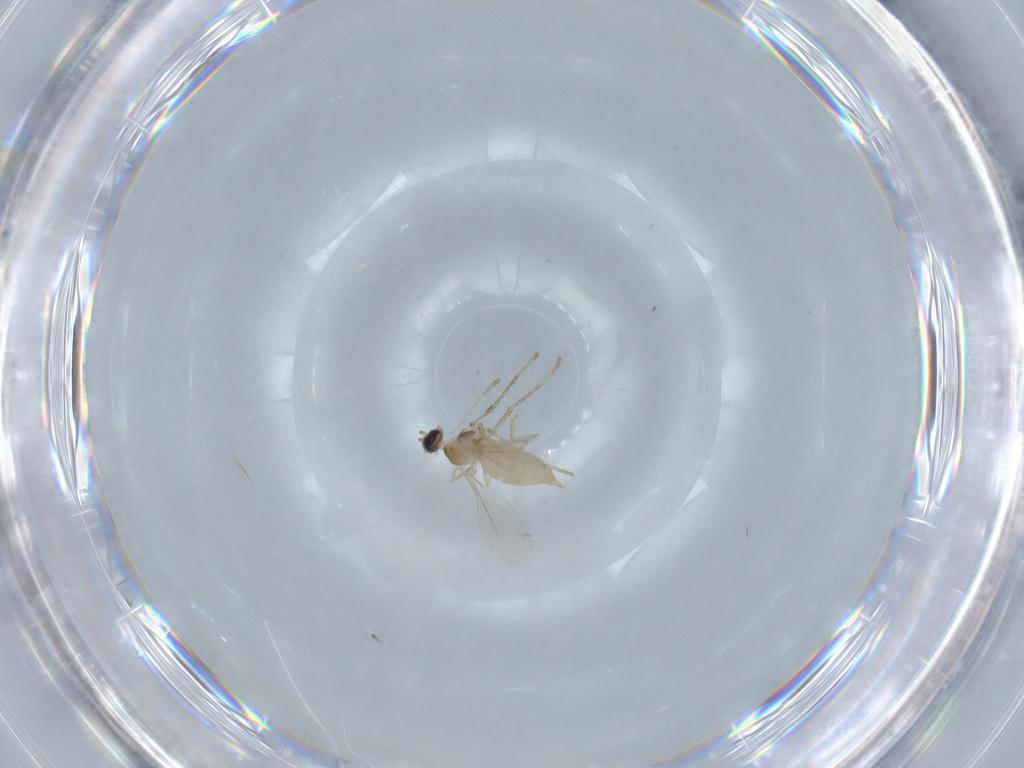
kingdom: Animalia
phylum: Arthropoda
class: Insecta
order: Diptera
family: Cecidomyiidae
